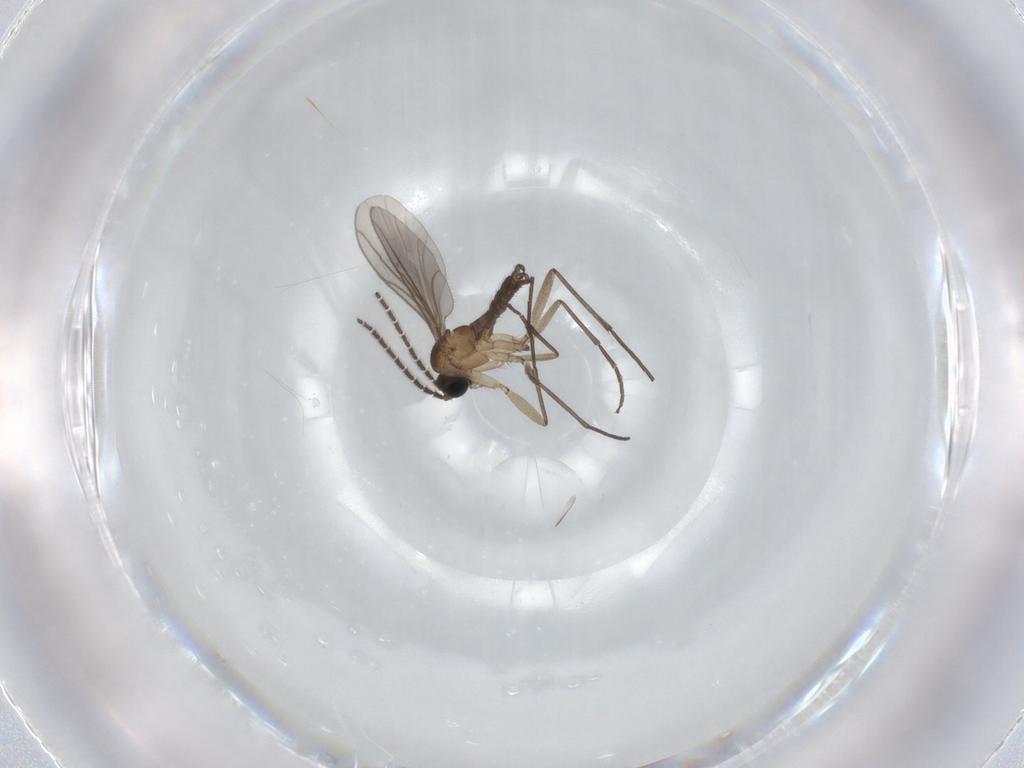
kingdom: Animalia
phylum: Arthropoda
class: Insecta
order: Diptera
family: Sciaridae
